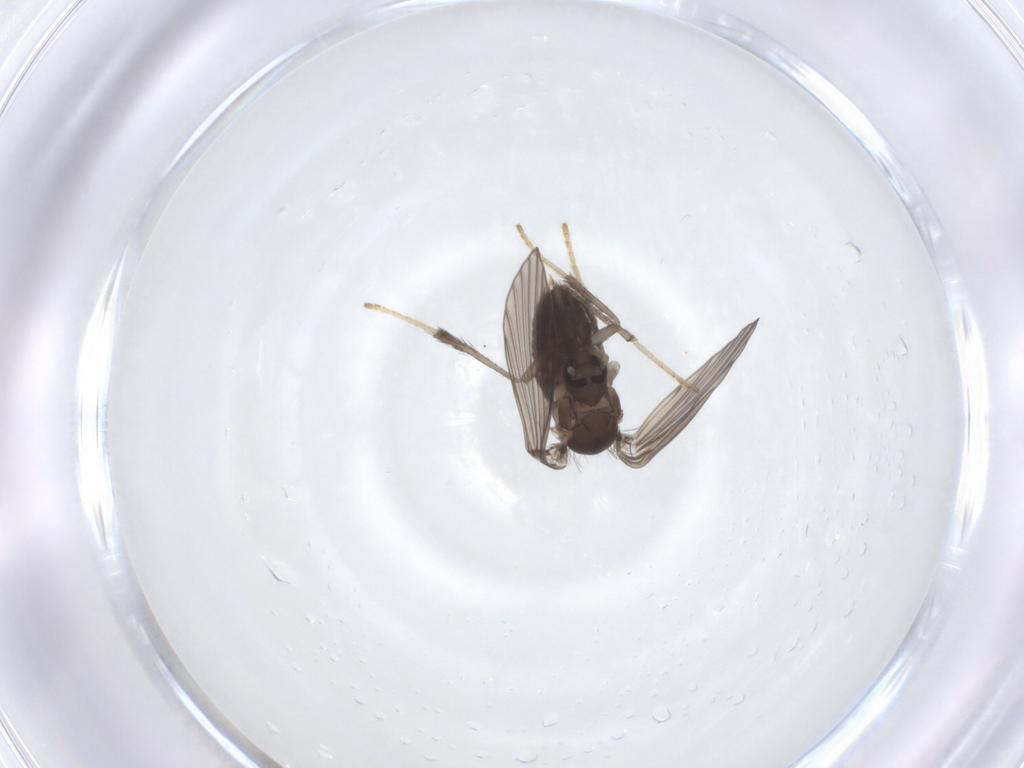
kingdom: Animalia
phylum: Arthropoda
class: Insecta
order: Diptera
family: Psychodidae
